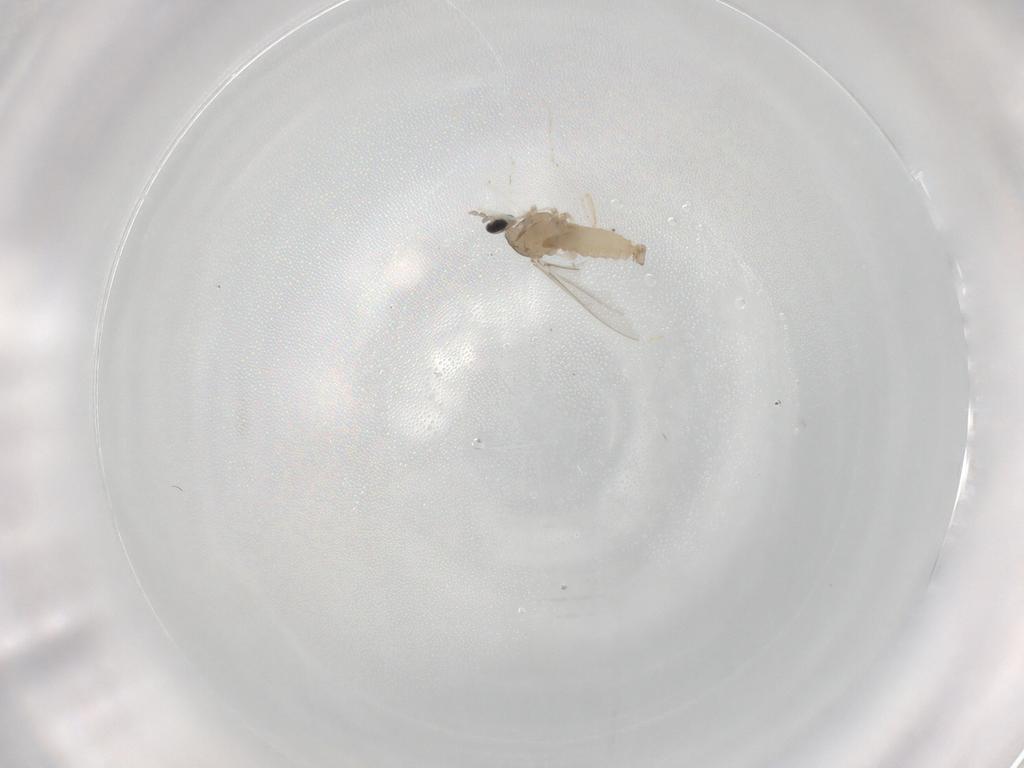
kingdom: Animalia
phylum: Arthropoda
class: Insecta
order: Diptera
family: Cecidomyiidae
